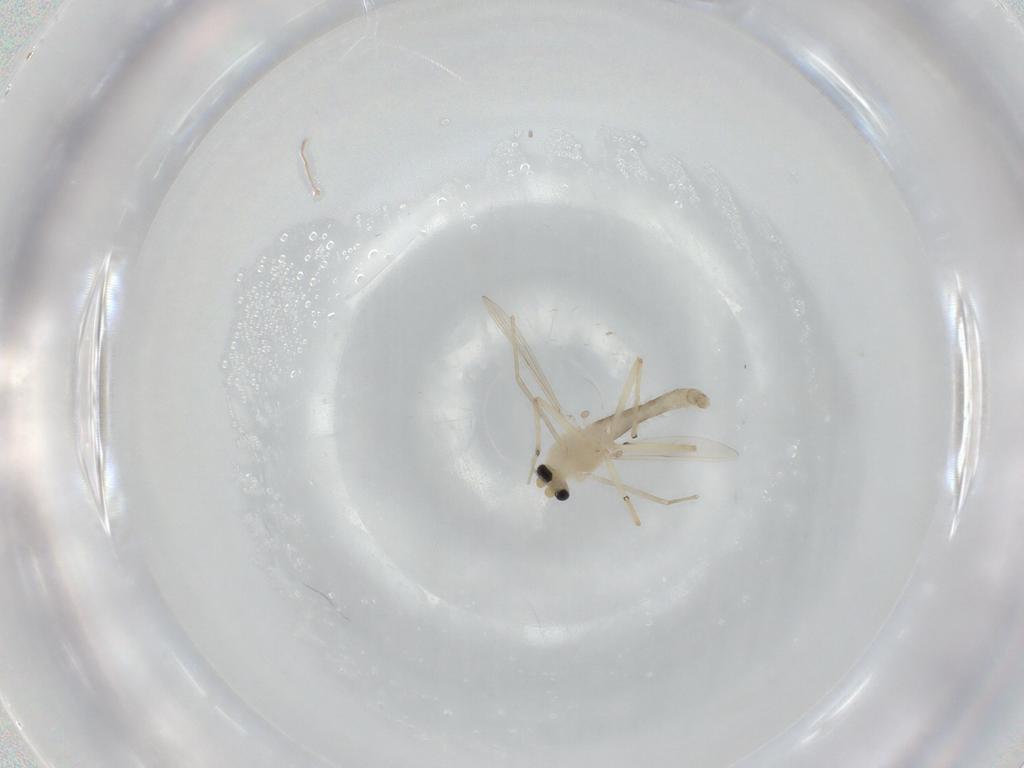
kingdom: Animalia
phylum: Arthropoda
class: Insecta
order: Diptera
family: Chironomidae
